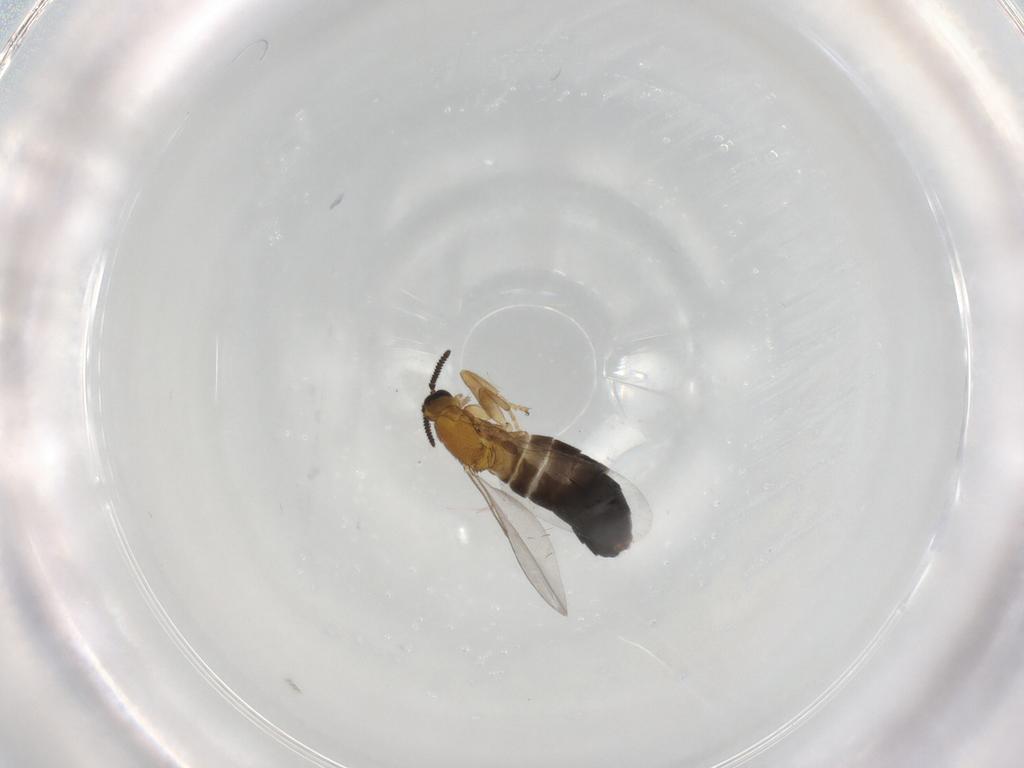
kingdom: Animalia
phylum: Arthropoda
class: Insecta
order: Diptera
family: Scatopsidae
